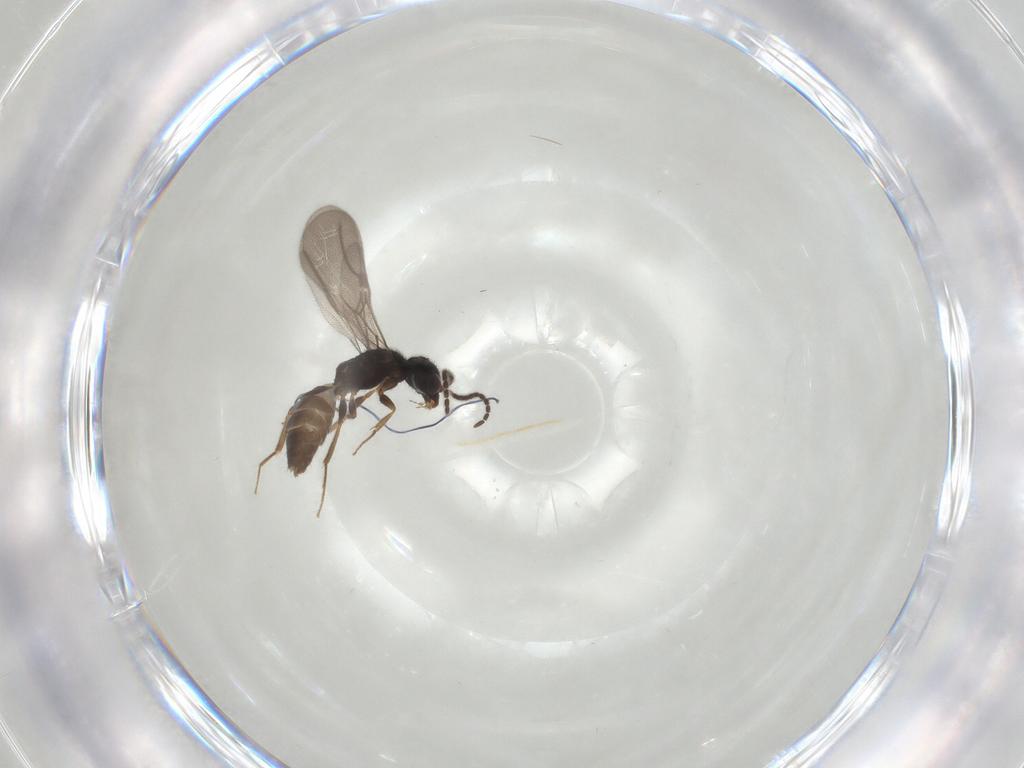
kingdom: Animalia
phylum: Arthropoda
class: Insecta
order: Hymenoptera
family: Bethylidae
